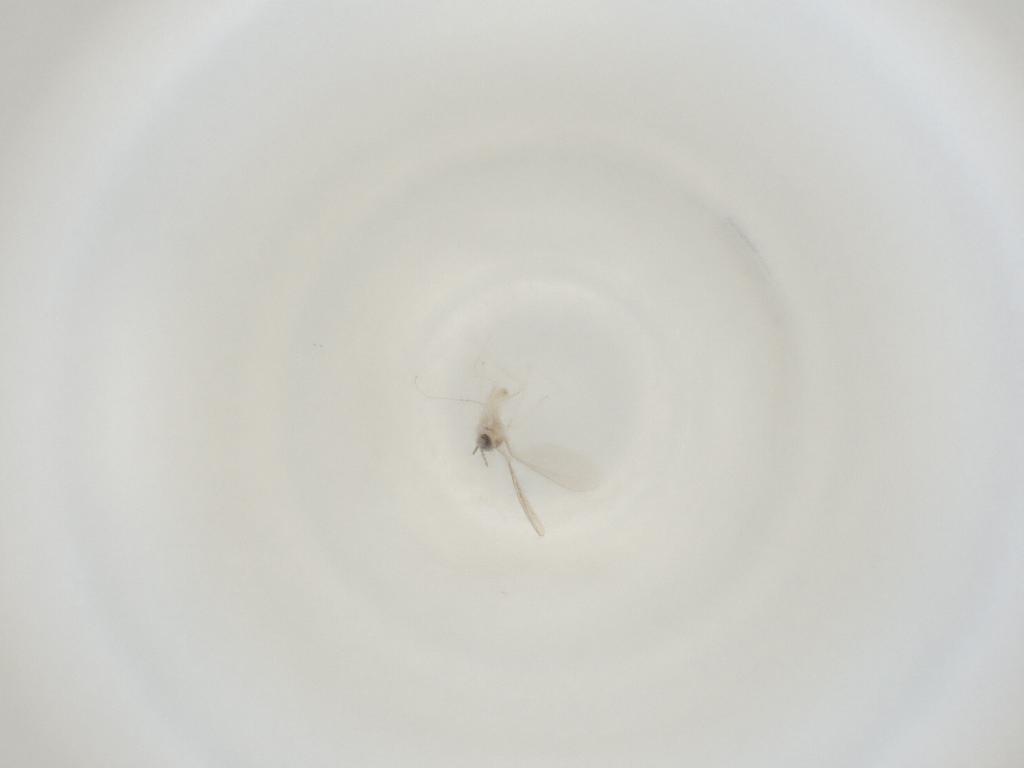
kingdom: Animalia
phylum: Arthropoda
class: Insecta
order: Diptera
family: Cecidomyiidae
